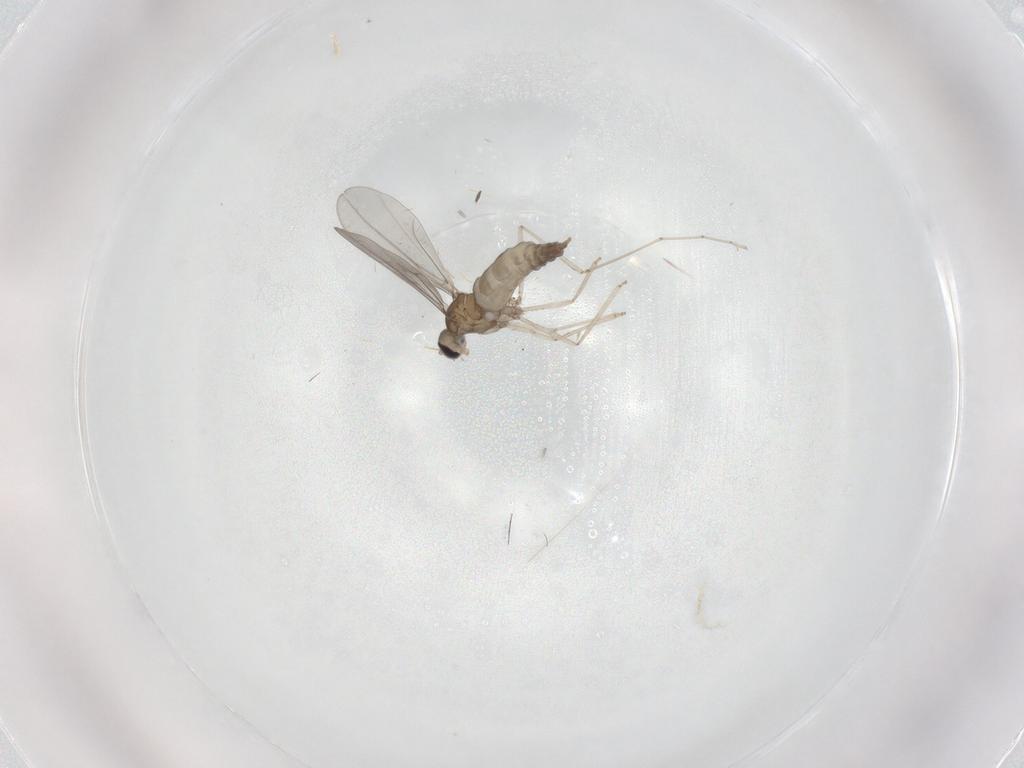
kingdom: Animalia
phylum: Arthropoda
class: Insecta
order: Diptera
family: Cecidomyiidae
